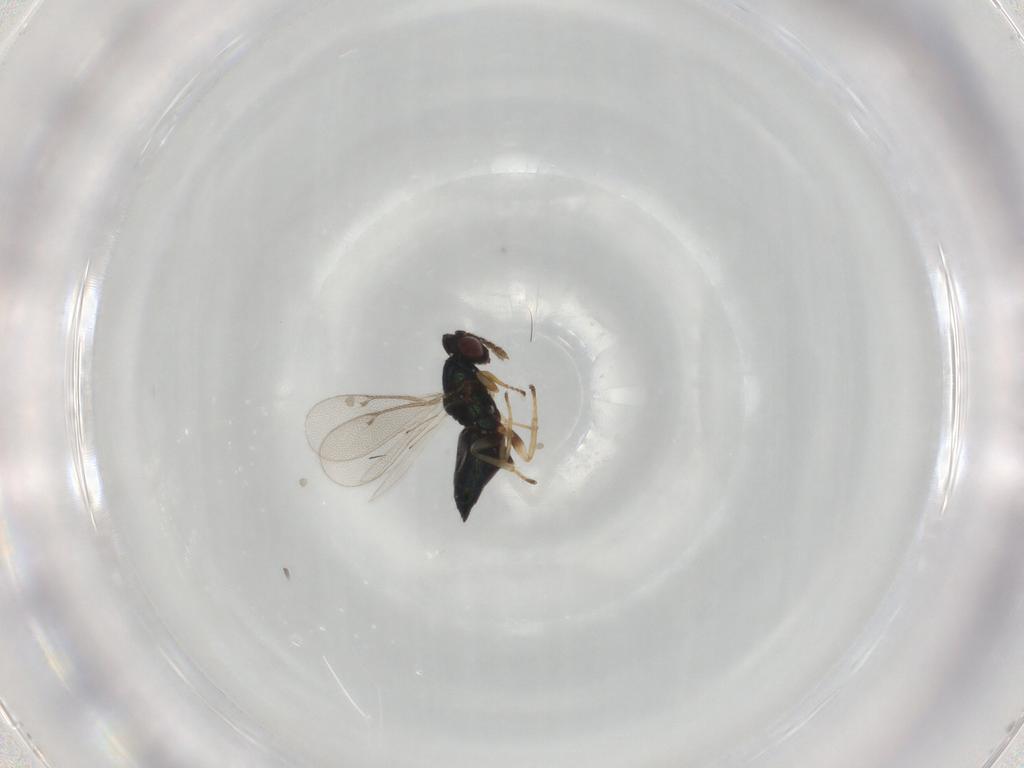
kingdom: Animalia
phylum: Arthropoda
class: Insecta
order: Hymenoptera
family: Eulophidae
